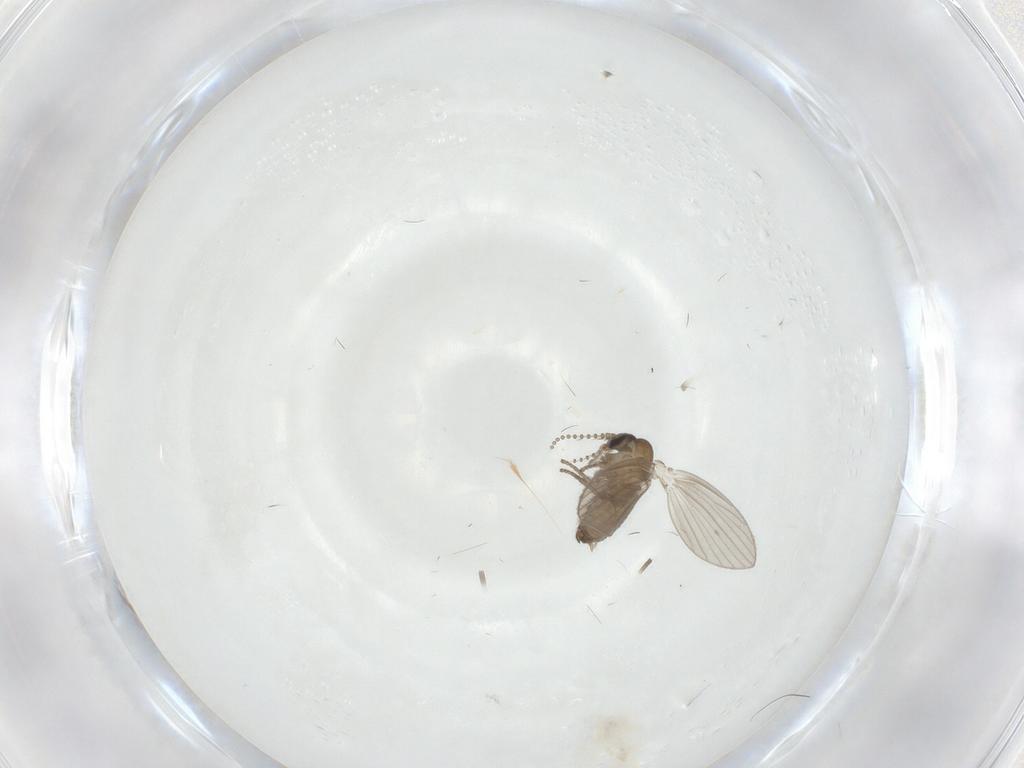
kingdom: Animalia
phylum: Arthropoda
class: Insecta
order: Diptera
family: Psychodidae
